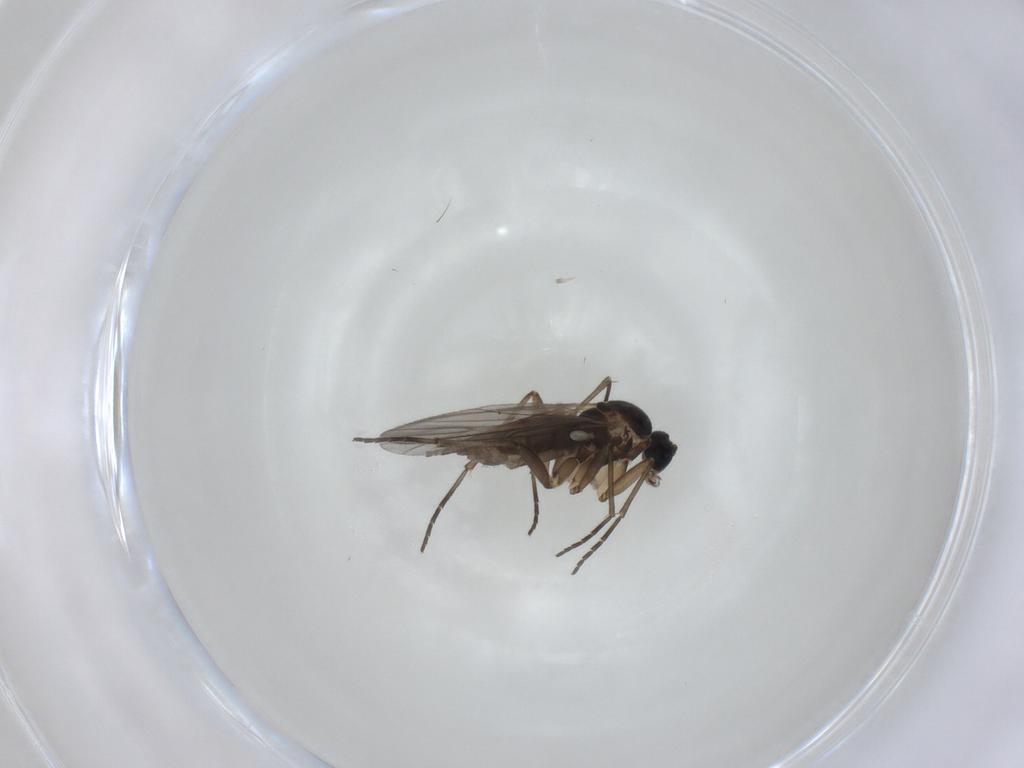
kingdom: Animalia
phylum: Arthropoda
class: Insecta
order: Diptera
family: Sciaridae
